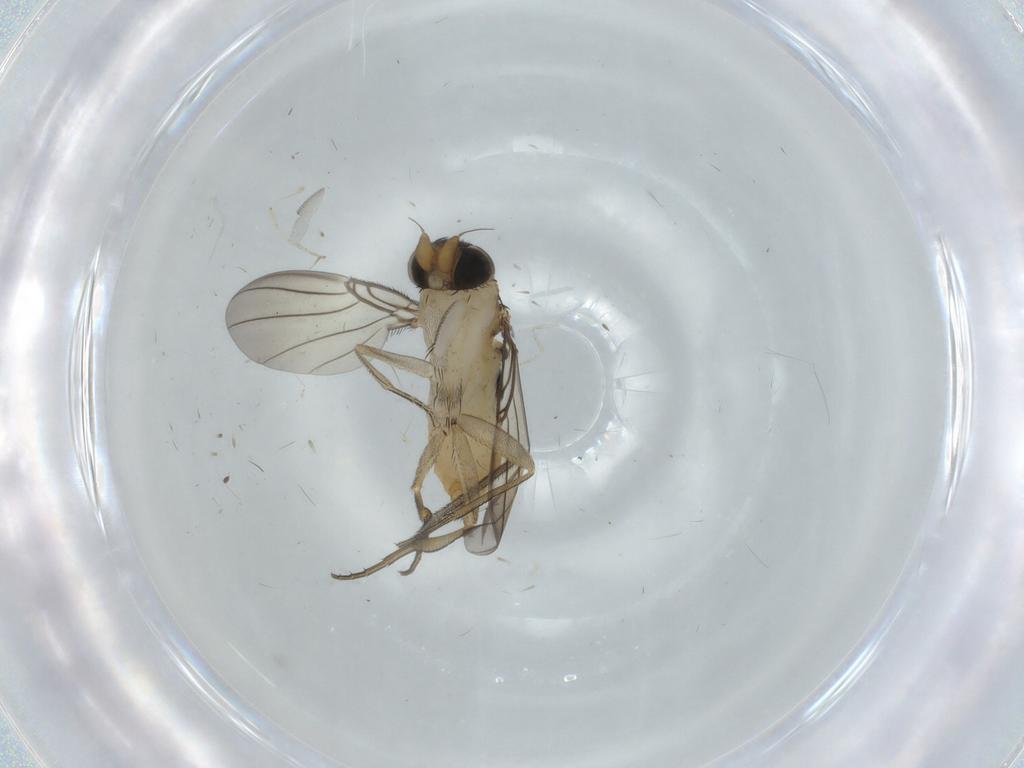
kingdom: Animalia
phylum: Arthropoda
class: Insecta
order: Diptera
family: Keroplatidae
